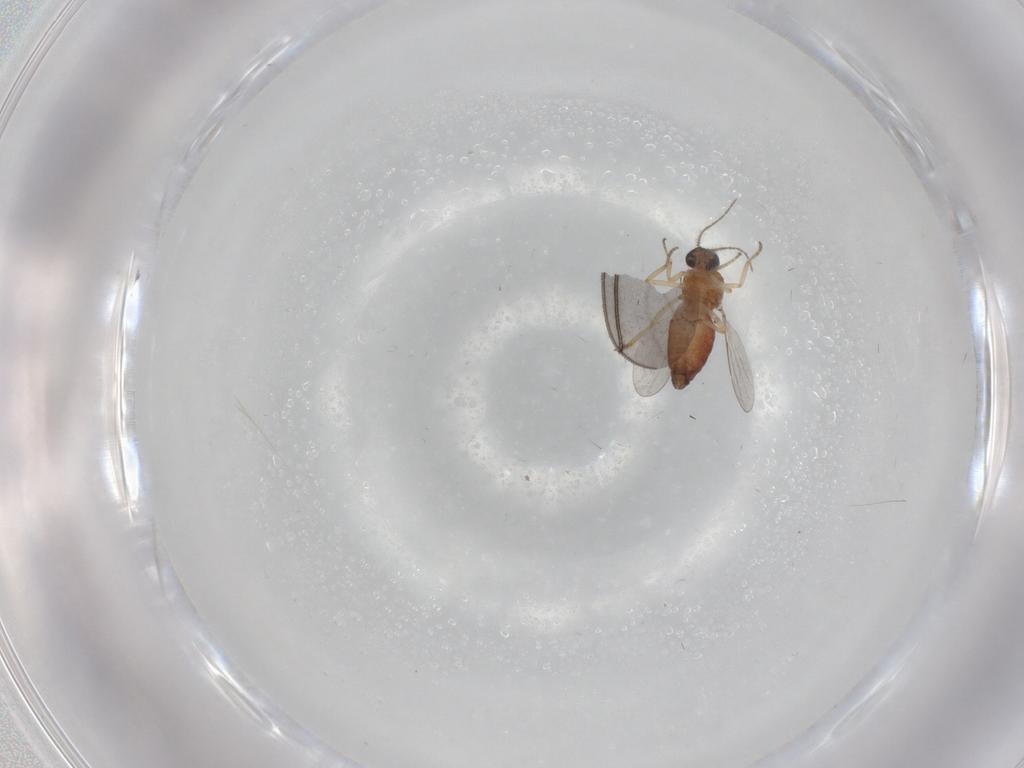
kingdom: Animalia
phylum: Arthropoda
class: Insecta
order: Diptera
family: Sciaridae
